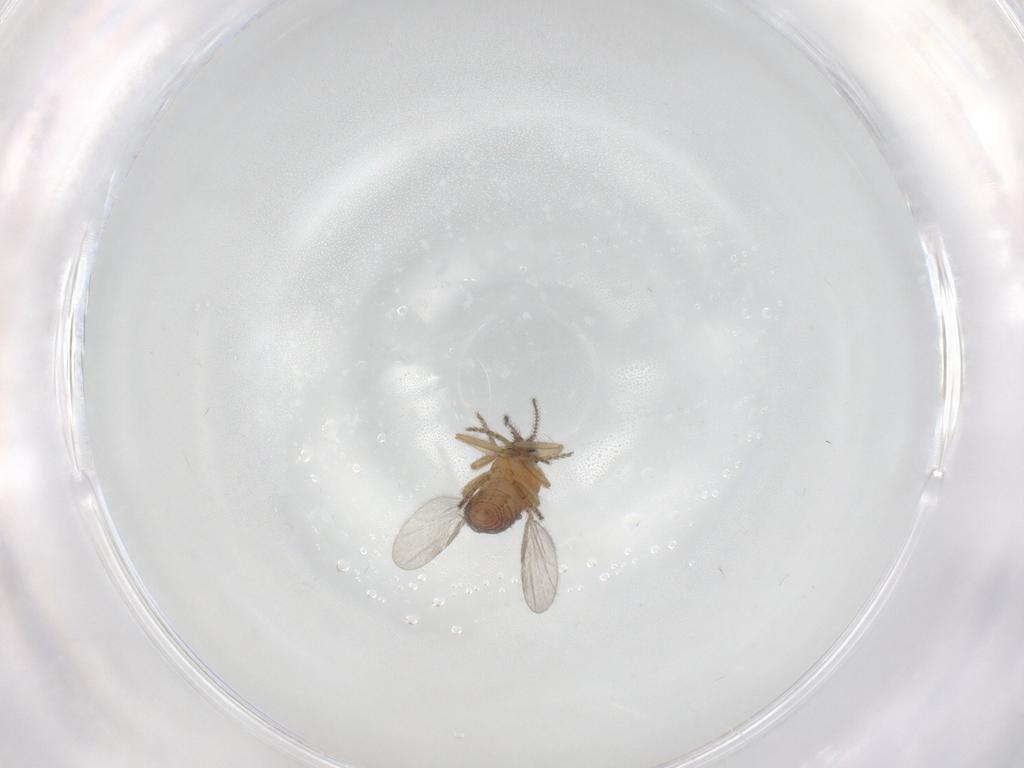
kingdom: Animalia
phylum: Arthropoda
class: Insecta
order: Diptera
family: Ceratopogonidae
